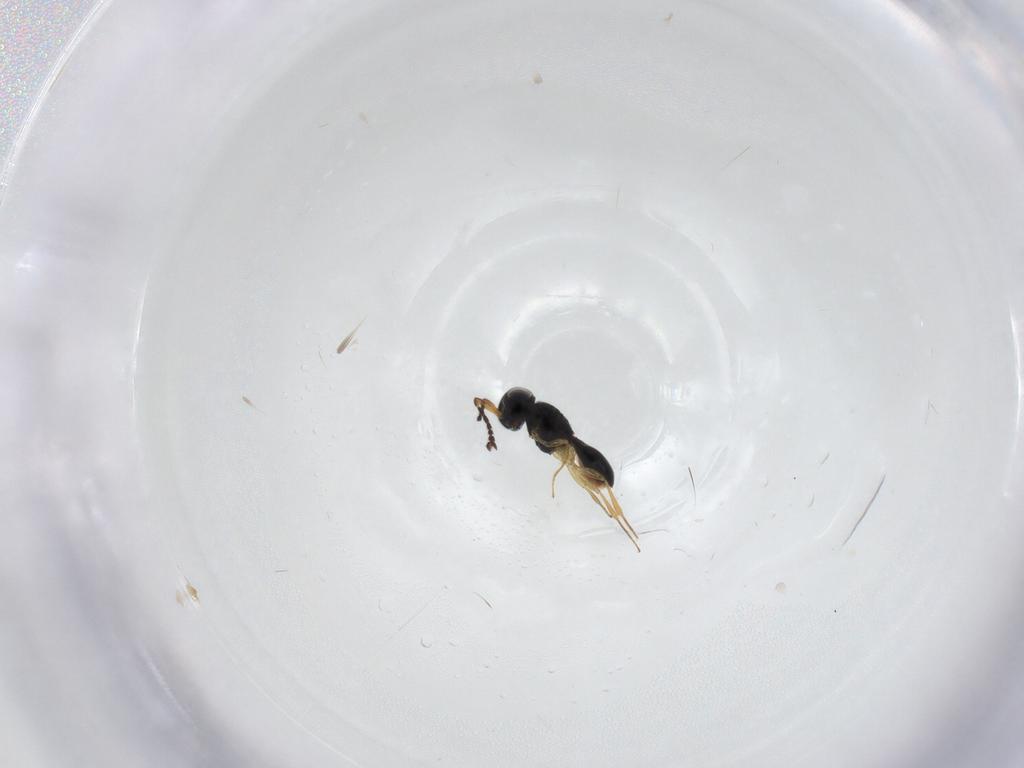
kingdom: Animalia
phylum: Arthropoda
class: Insecta
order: Hymenoptera
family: Scelionidae
